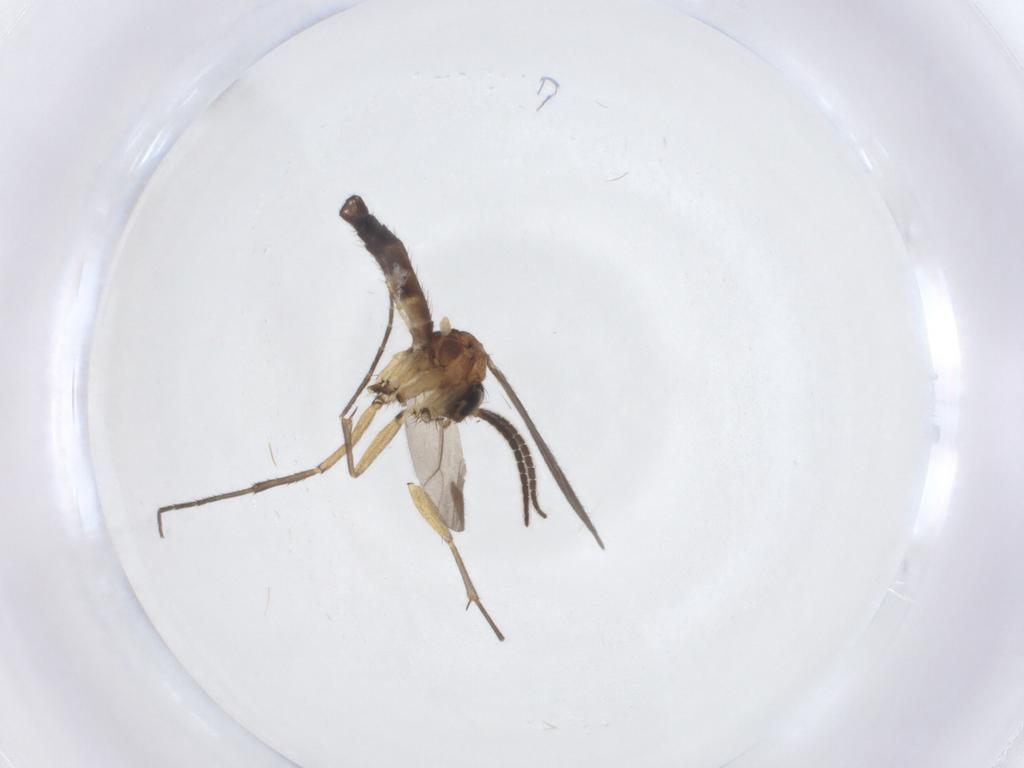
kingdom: Animalia
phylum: Arthropoda
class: Insecta
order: Diptera
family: Mycetophilidae
